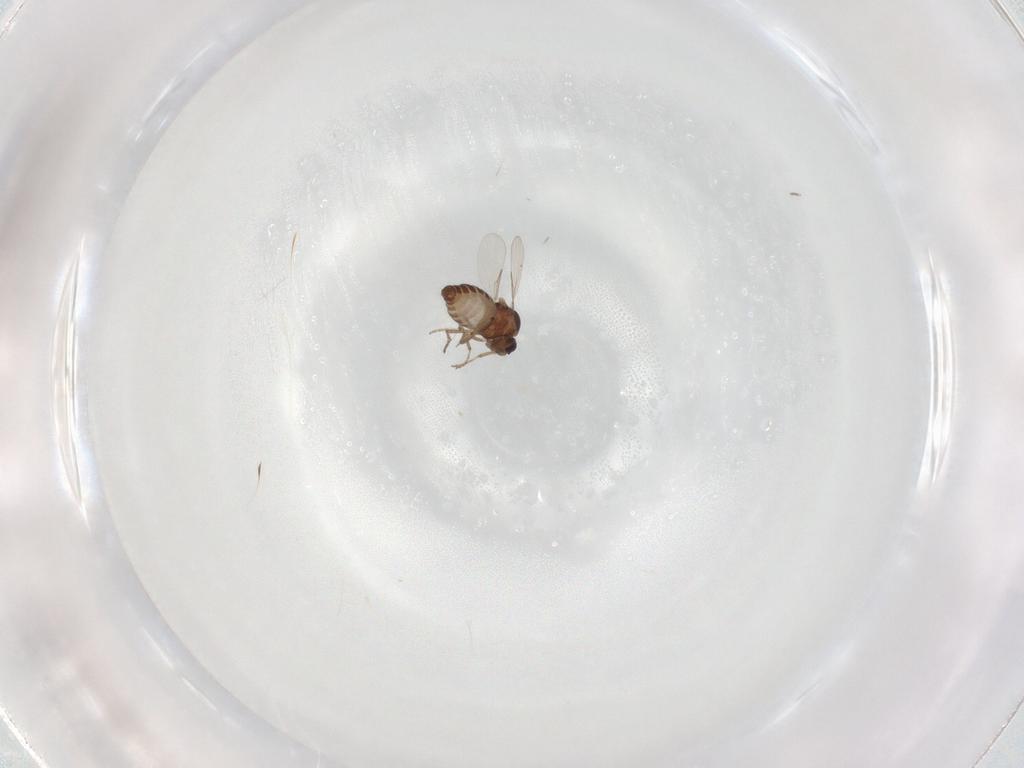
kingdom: Animalia
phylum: Arthropoda
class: Insecta
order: Diptera
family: Ceratopogonidae
